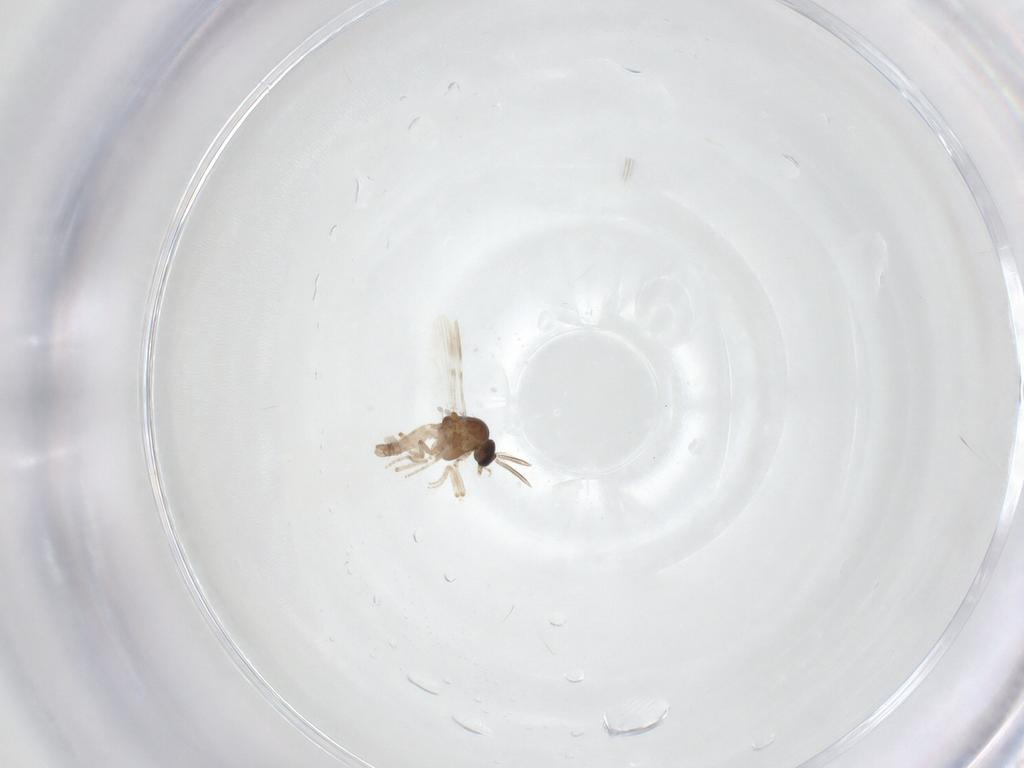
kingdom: Animalia
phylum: Arthropoda
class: Insecta
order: Diptera
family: Ceratopogonidae
